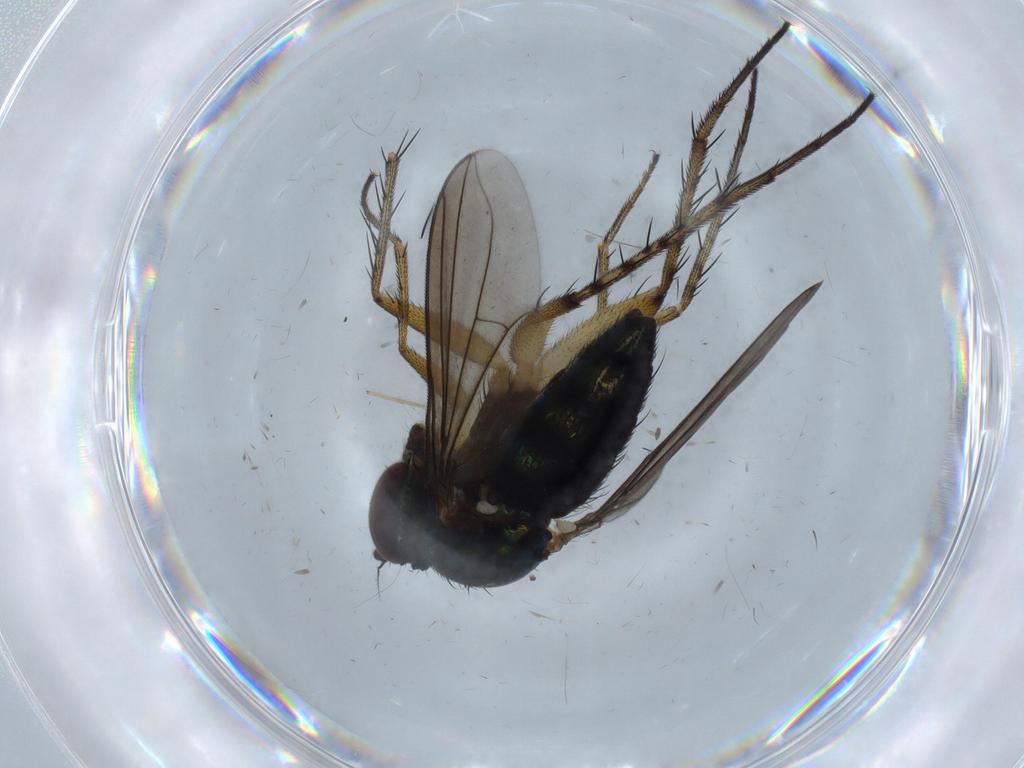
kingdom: Animalia
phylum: Arthropoda
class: Insecta
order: Diptera
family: Dolichopodidae
